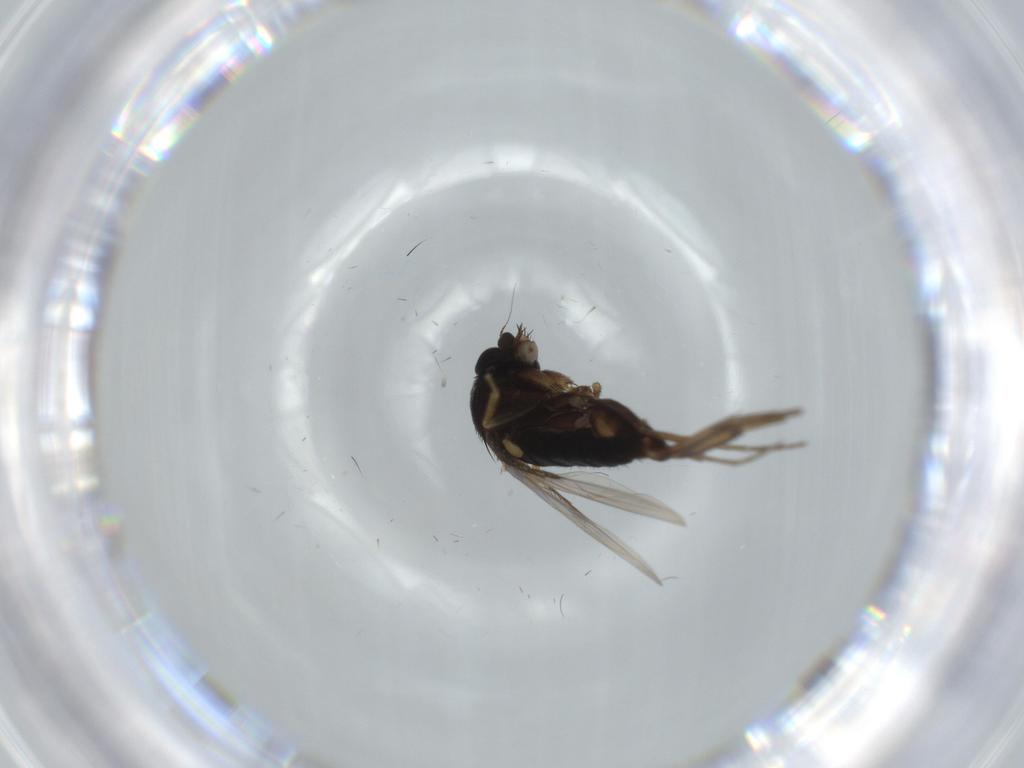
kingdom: Animalia
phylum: Arthropoda
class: Insecta
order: Diptera
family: Phoridae
